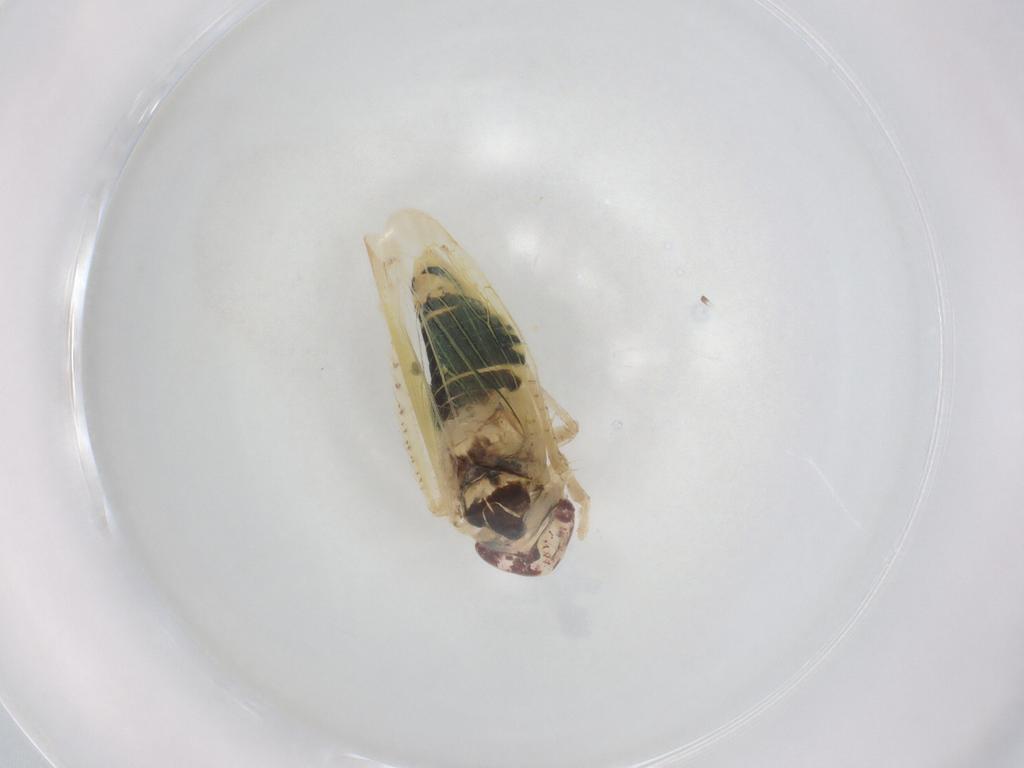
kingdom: Animalia
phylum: Arthropoda
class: Insecta
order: Hemiptera
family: Cicadellidae
